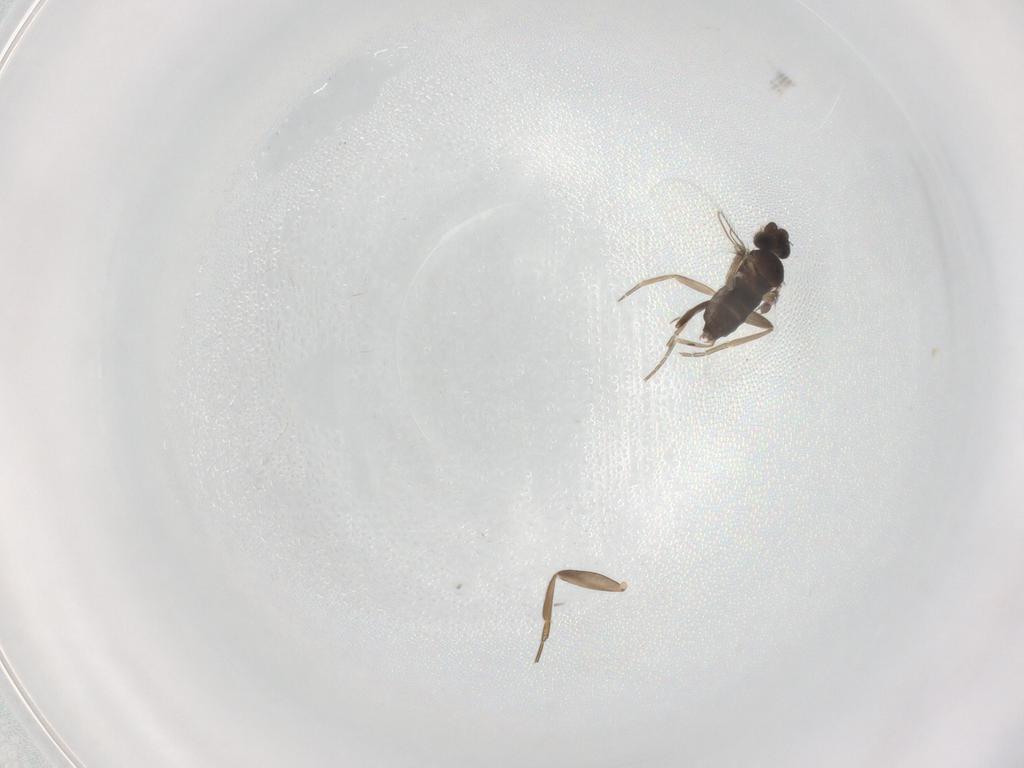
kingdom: Animalia
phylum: Arthropoda
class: Insecta
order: Diptera
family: Phoridae
